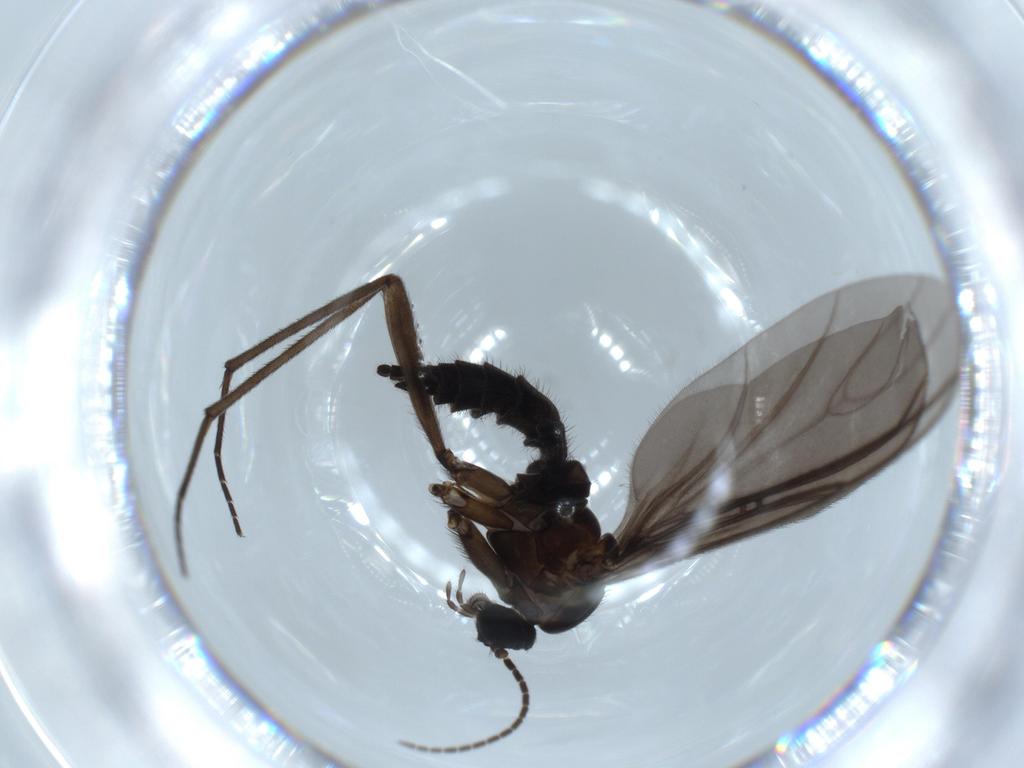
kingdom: Animalia
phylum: Arthropoda
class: Insecta
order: Diptera
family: Sciaridae
